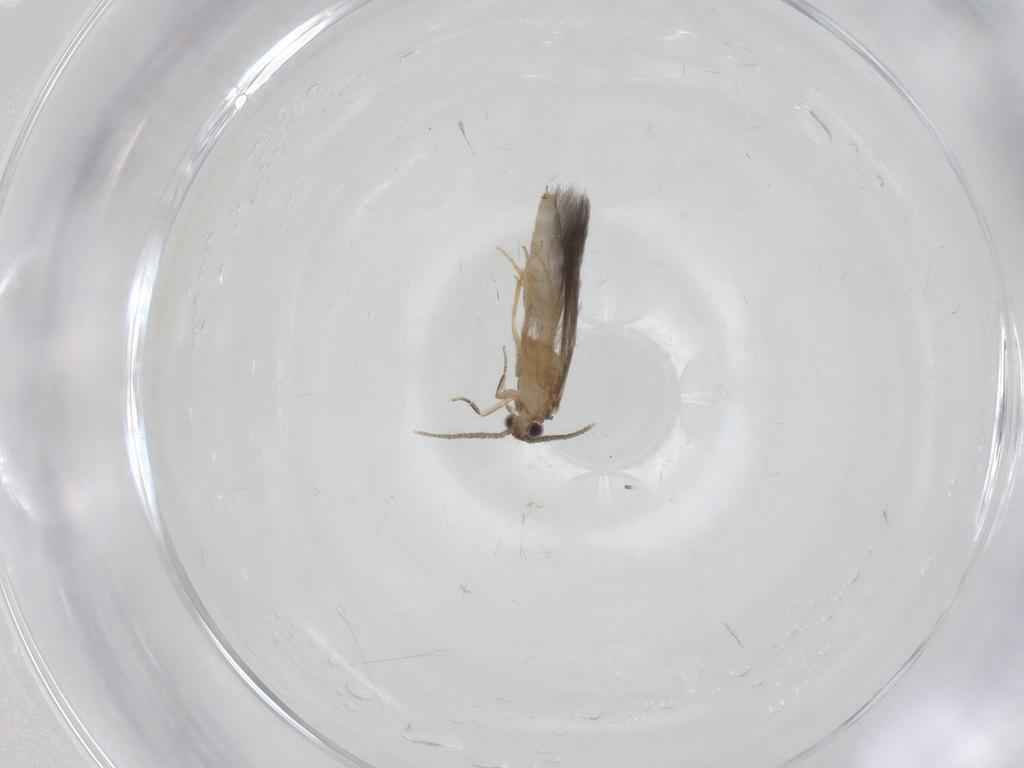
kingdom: Animalia
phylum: Arthropoda
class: Insecta
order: Trichoptera
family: Hydroptilidae
